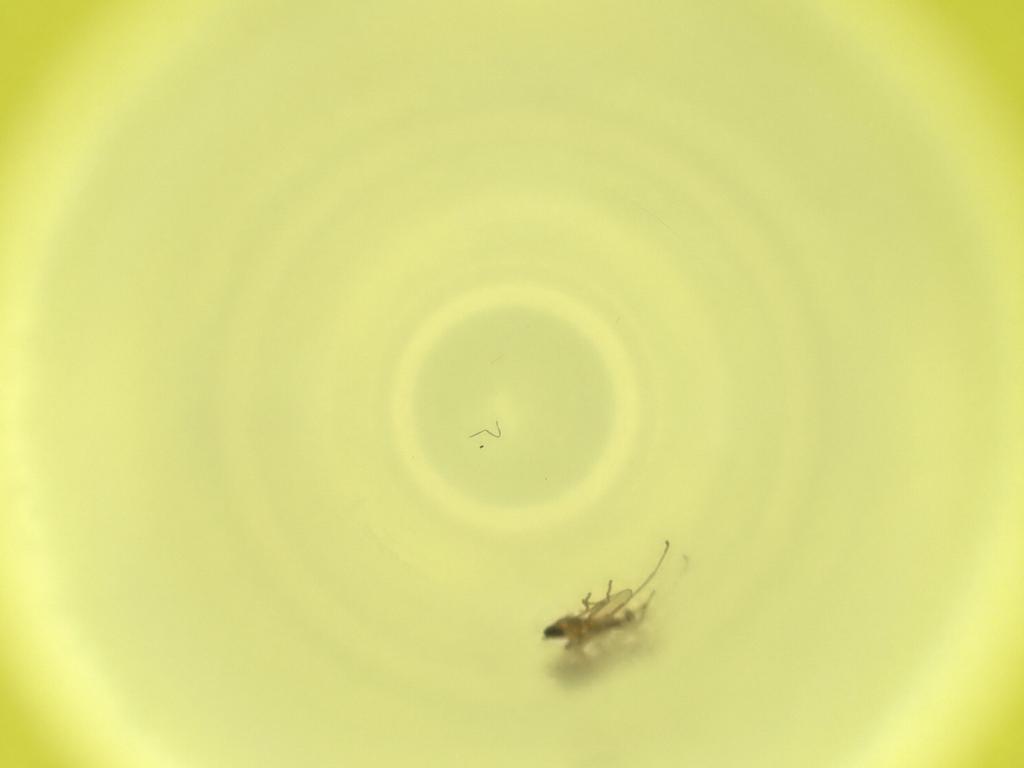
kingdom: Animalia
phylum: Arthropoda
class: Insecta
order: Diptera
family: Cecidomyiidae
